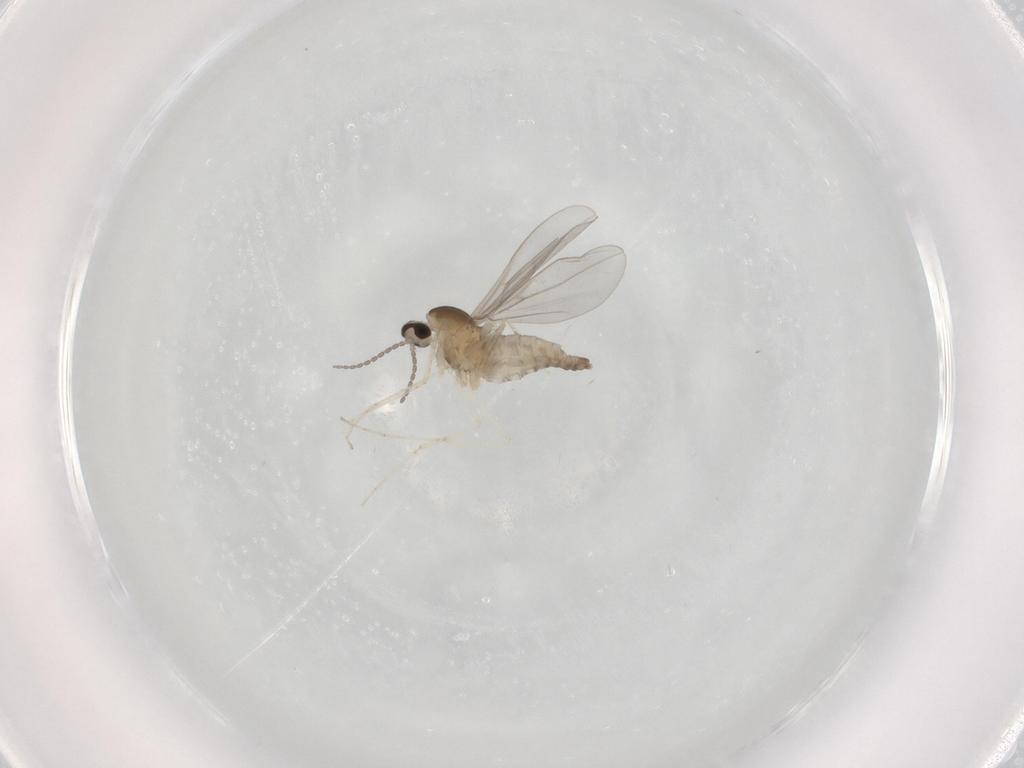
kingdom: Animalia
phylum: Arthropoda
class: Insecta
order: Diptera
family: Cecidomyiidae
